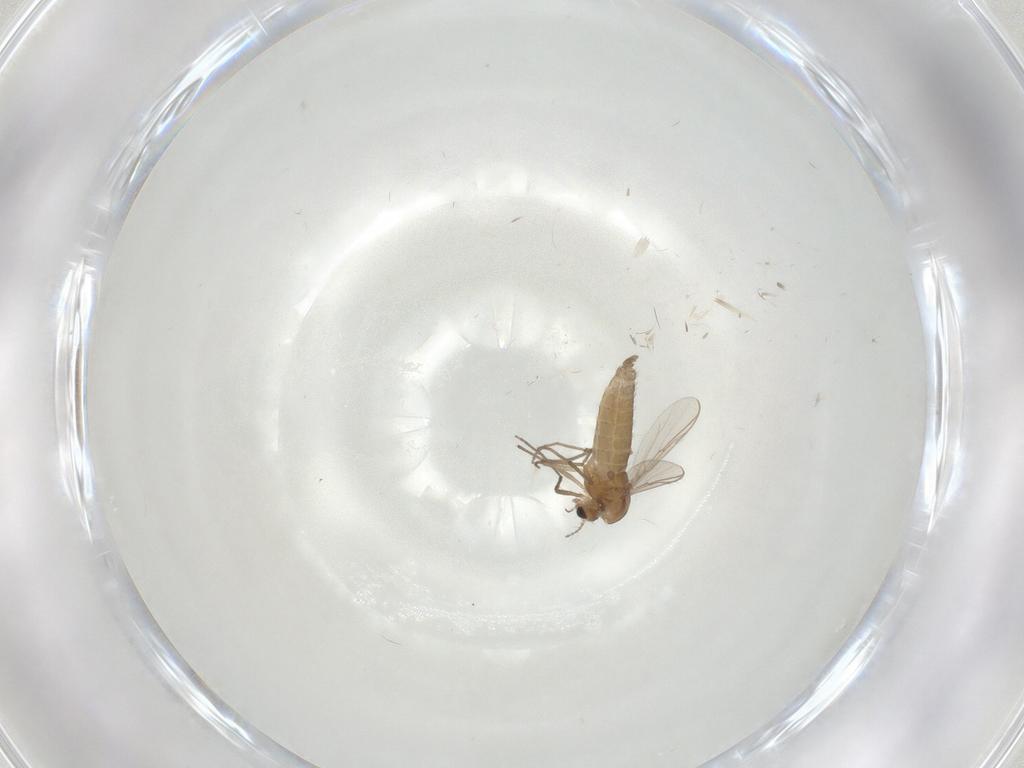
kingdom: Animalia
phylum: Arthropoda
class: Insecta
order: Diptera
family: Chironomidae
